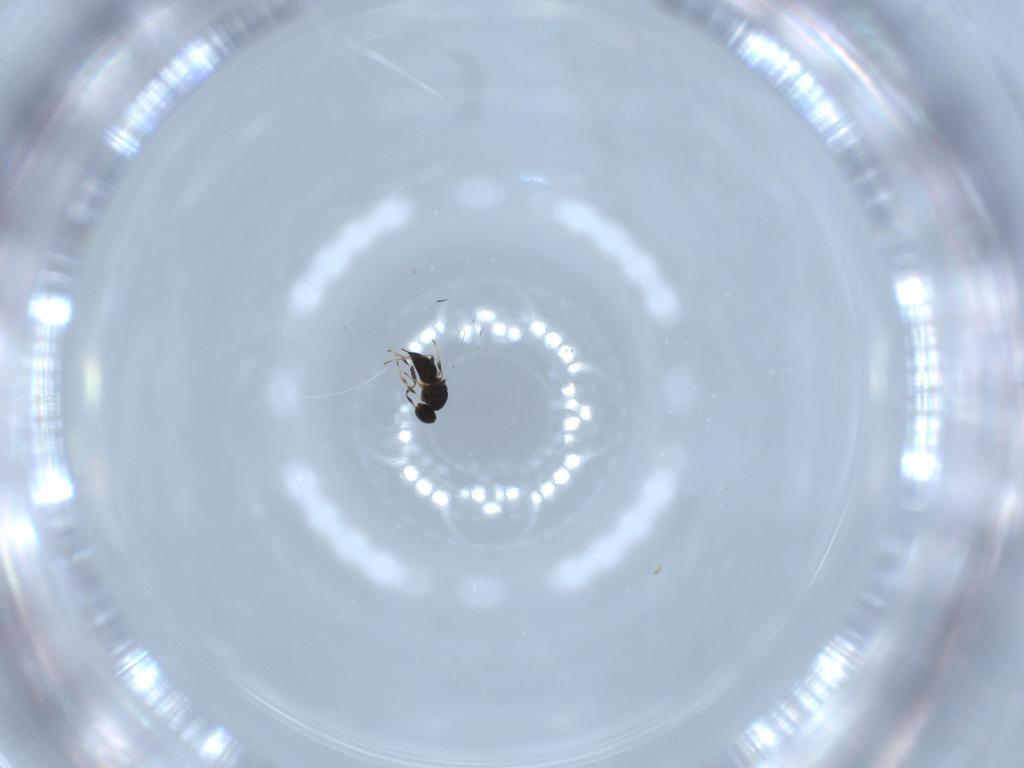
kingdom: Animalia
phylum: Arthropoda
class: Insecta
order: Hymenoptera
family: Platygastridae
